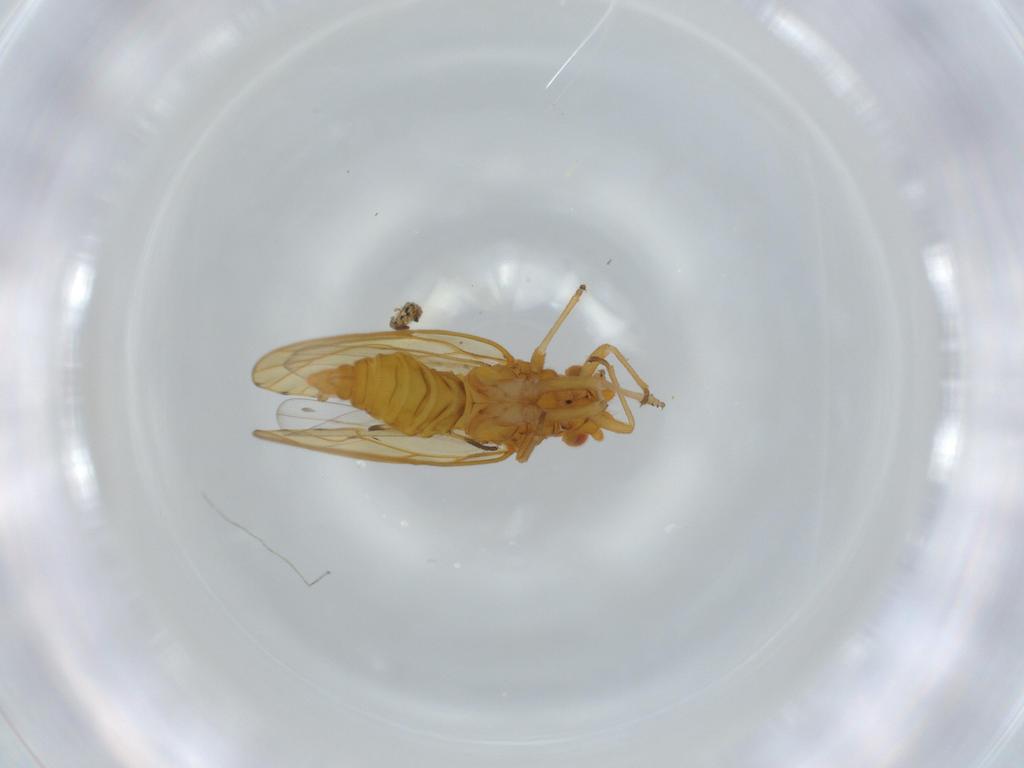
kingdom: Animalia
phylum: Arthropoda
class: Insecta
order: Hemiptera
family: Psylloidea_incertae_sedis
